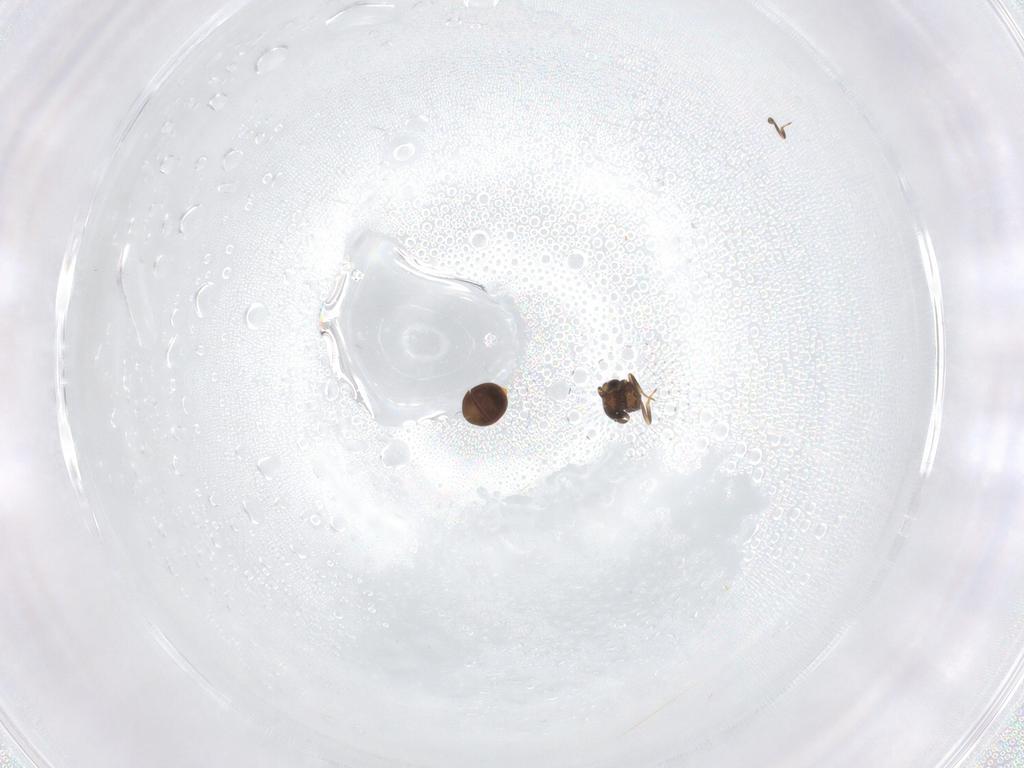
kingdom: Animalia
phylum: Arthropoda
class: Insecta
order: Hymenoptera
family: Scelionidae
